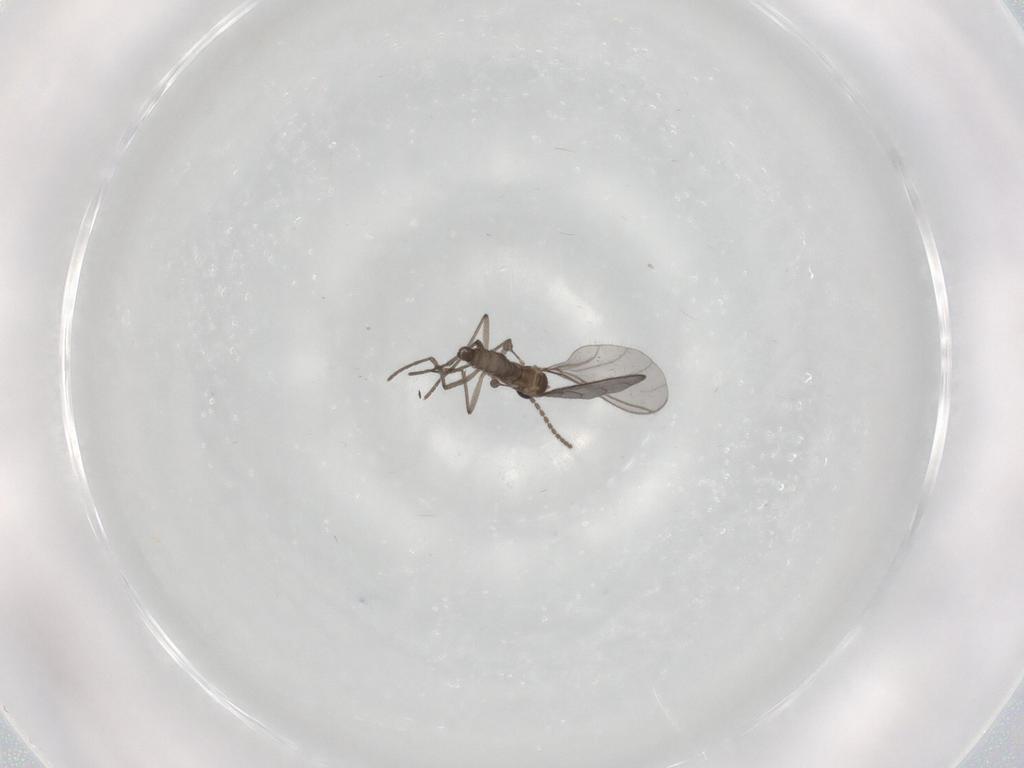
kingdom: Animalia
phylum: Arthropoda
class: Insecta
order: Diptera
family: Sciaridae
